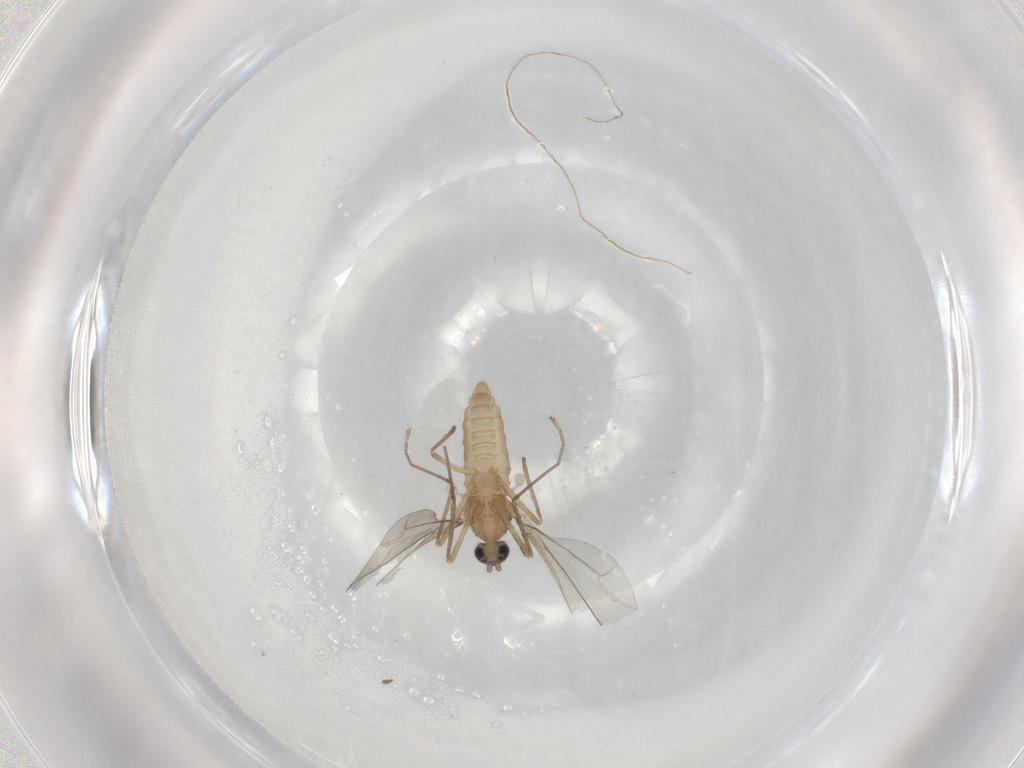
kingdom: Animalia
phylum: Arthropoda
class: Insecta
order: Diptera
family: Cecidomyiidae
